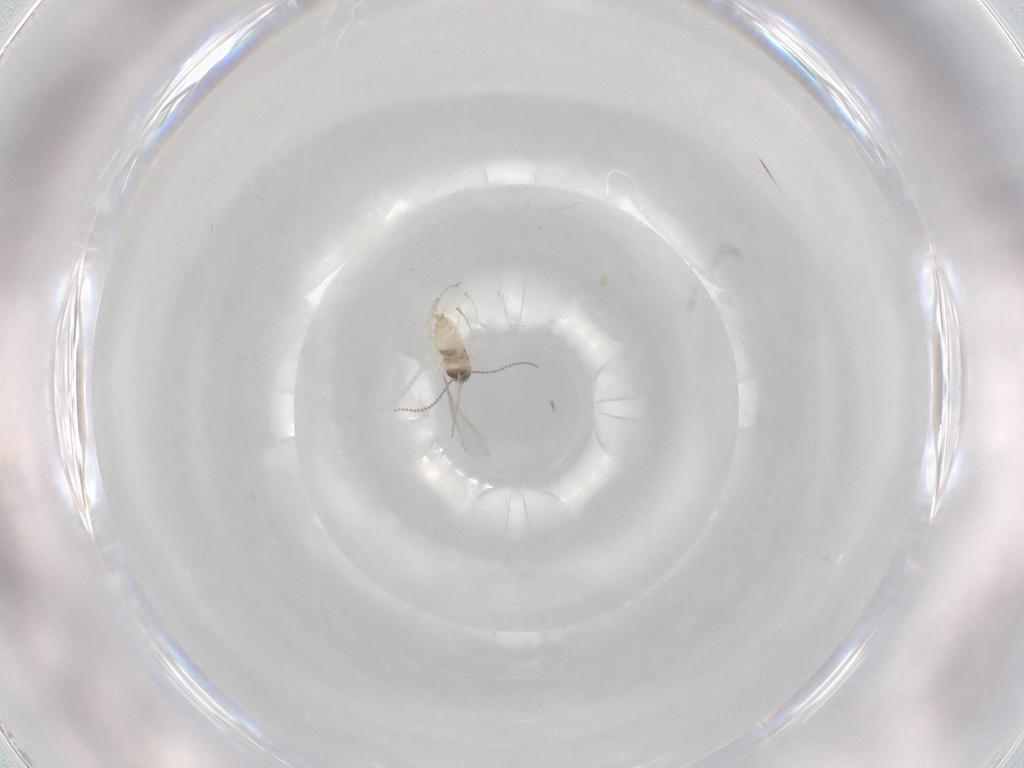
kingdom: Animalia
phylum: Arthropoda
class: Insecta
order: Diptera
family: Cecidomyiidae
